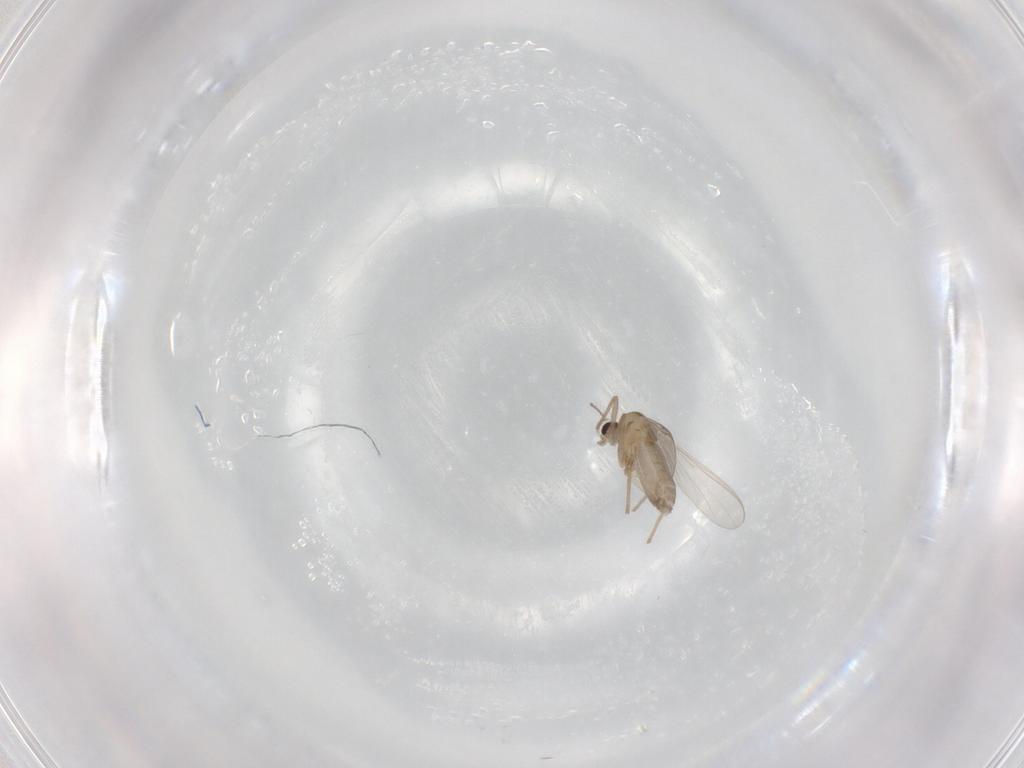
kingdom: Animalia
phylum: Arthropoda
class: Insecta
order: Diptera
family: Chironomidae
